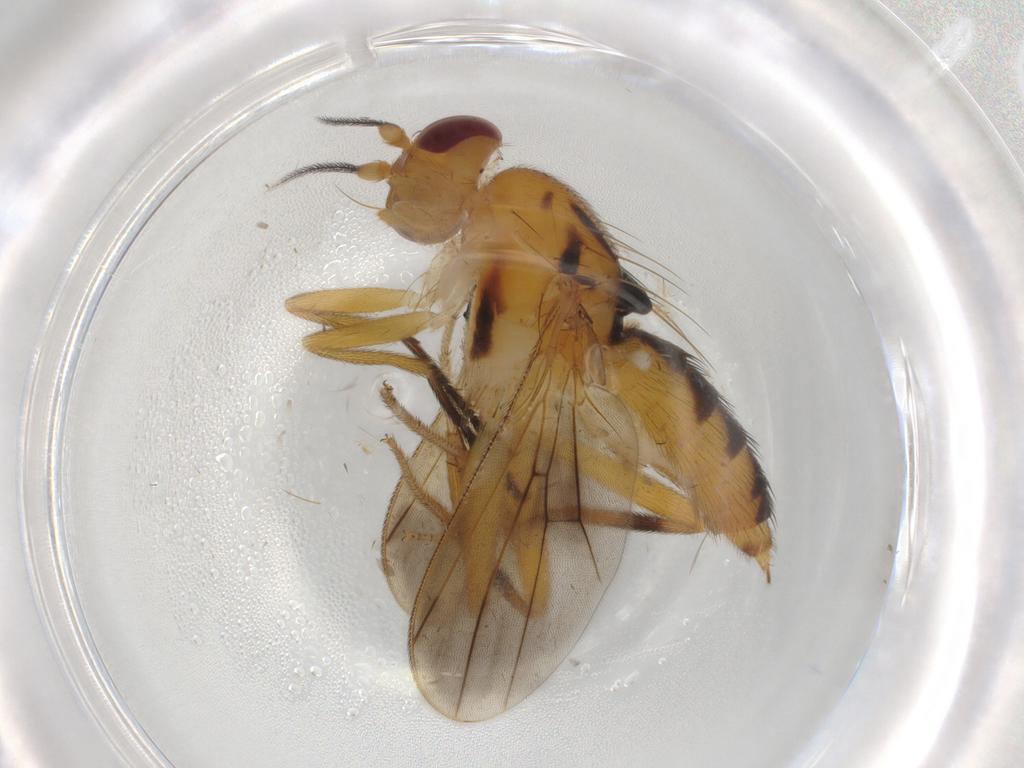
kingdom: Animalia
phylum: Arthropoda
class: Insecta
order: Diptera
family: Clusiidae
